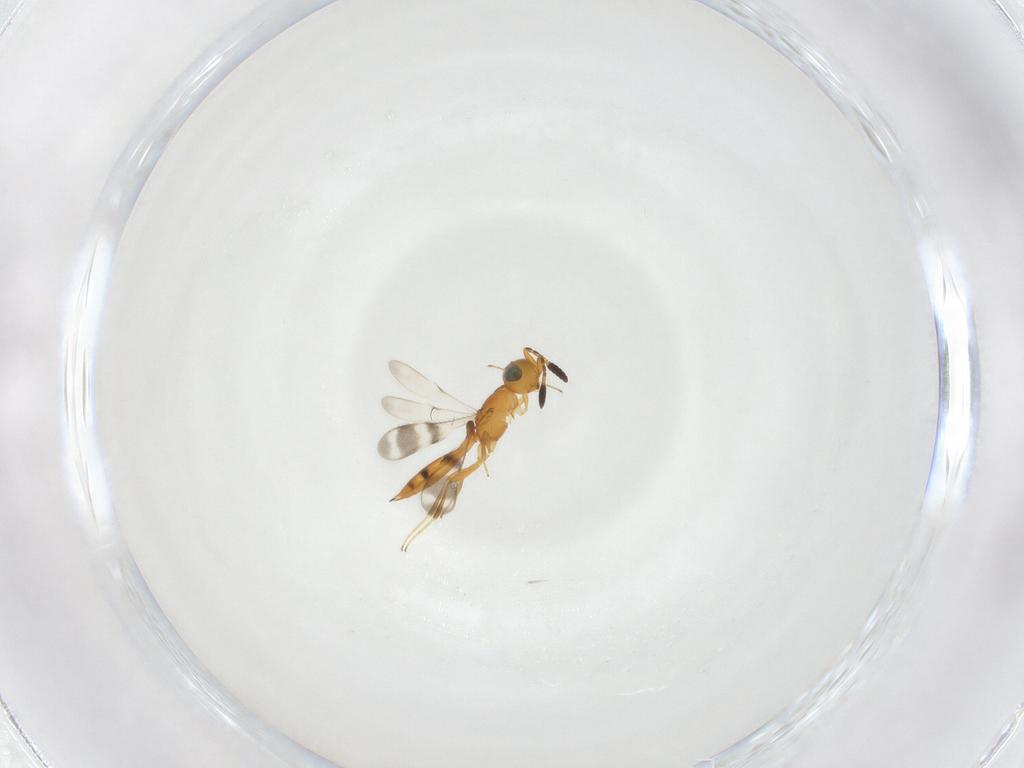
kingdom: Animalia
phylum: Arthropoda
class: Insecta
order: Hymenoptera
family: Scelionidae
